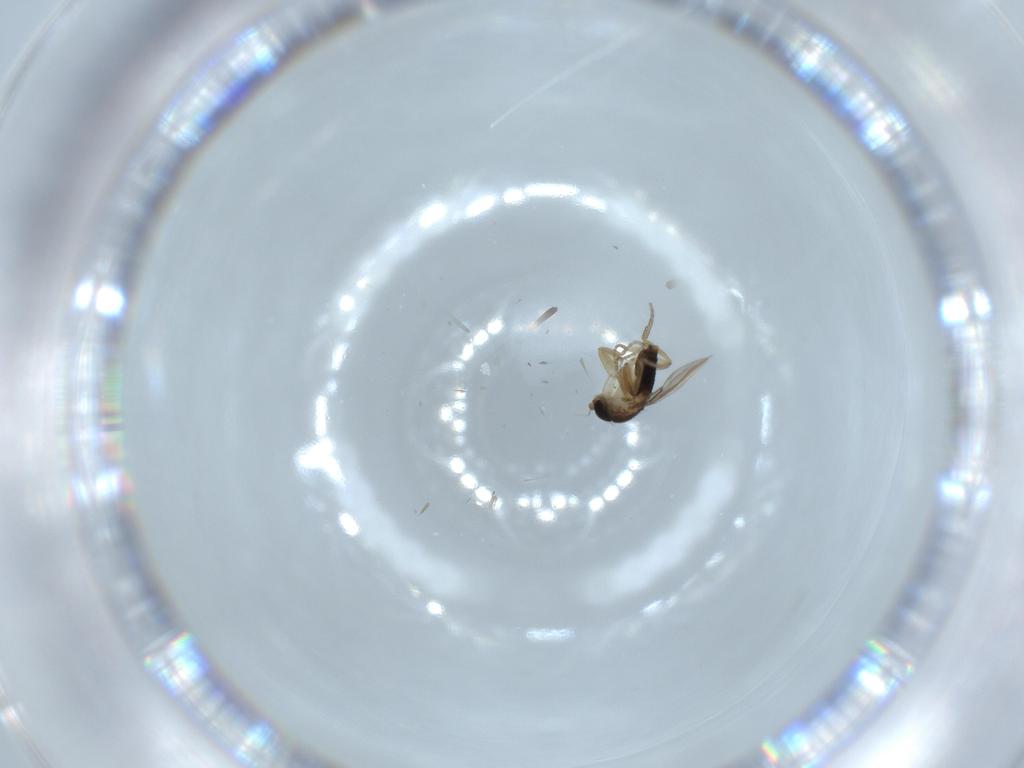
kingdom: Animalia
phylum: Arthropoda
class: Insecta
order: Diptera
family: Phoridae
